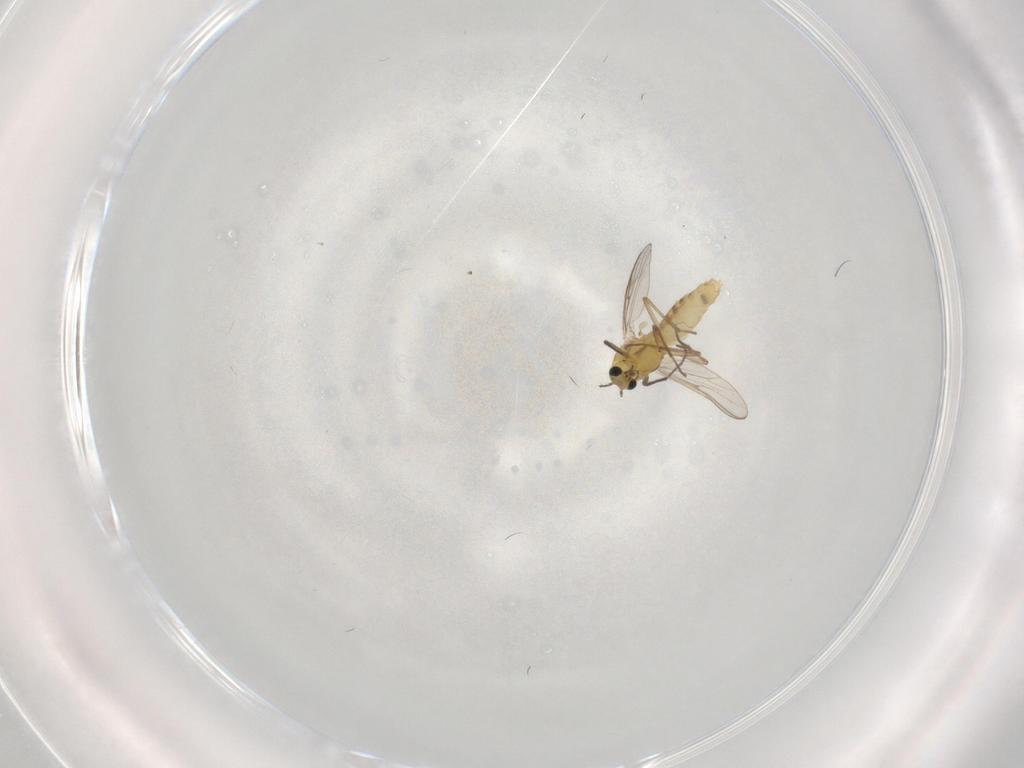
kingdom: Animalia
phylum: Arthropoda
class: Insecta
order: Diptera
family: Chironomidae
